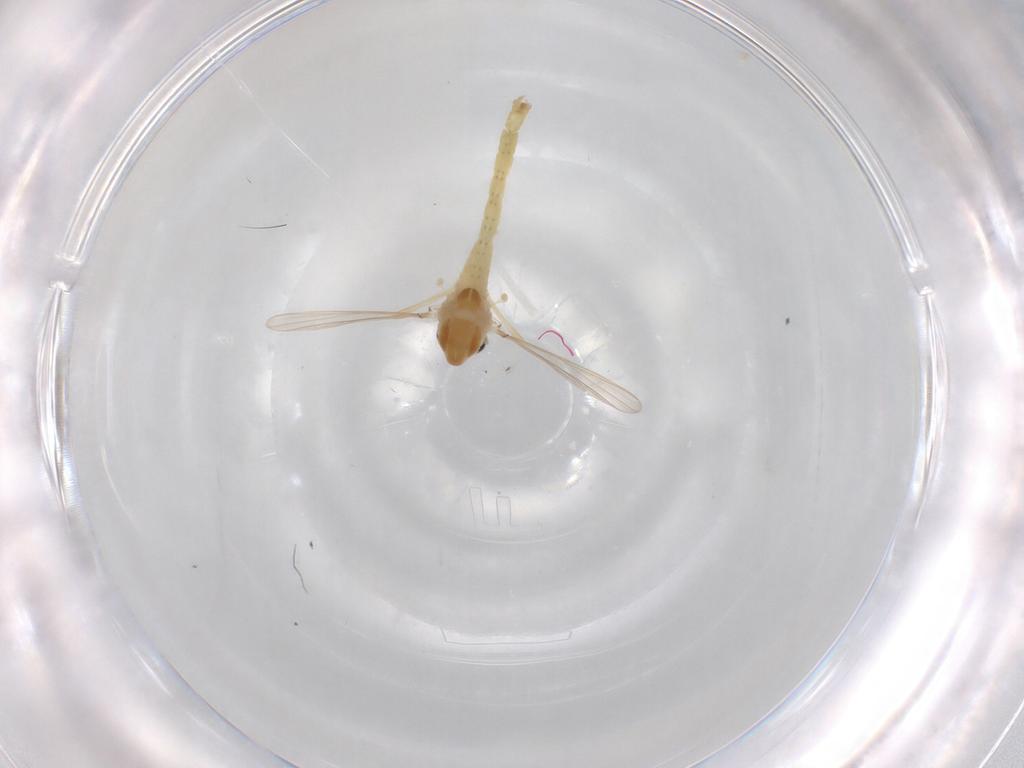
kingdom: Animalia
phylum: Arthropoda
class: Insecta
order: Diptera
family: Chironomidae
